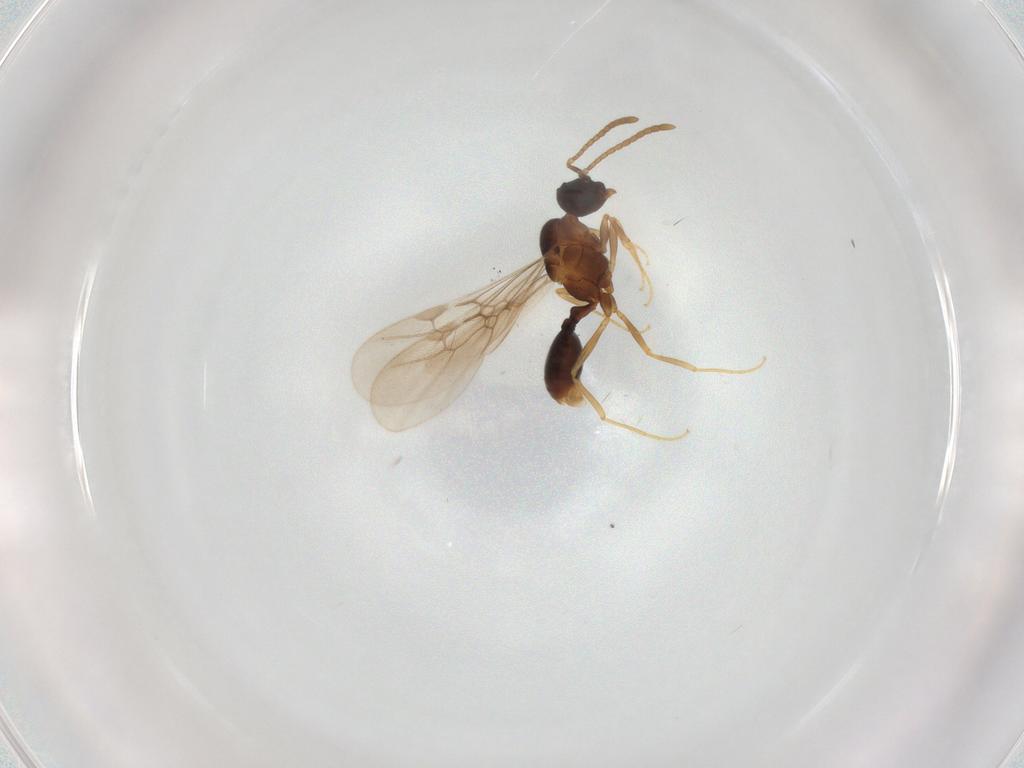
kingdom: Animalia
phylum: Arthropoda
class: Insecta
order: Hymenoptera
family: Formicidae
